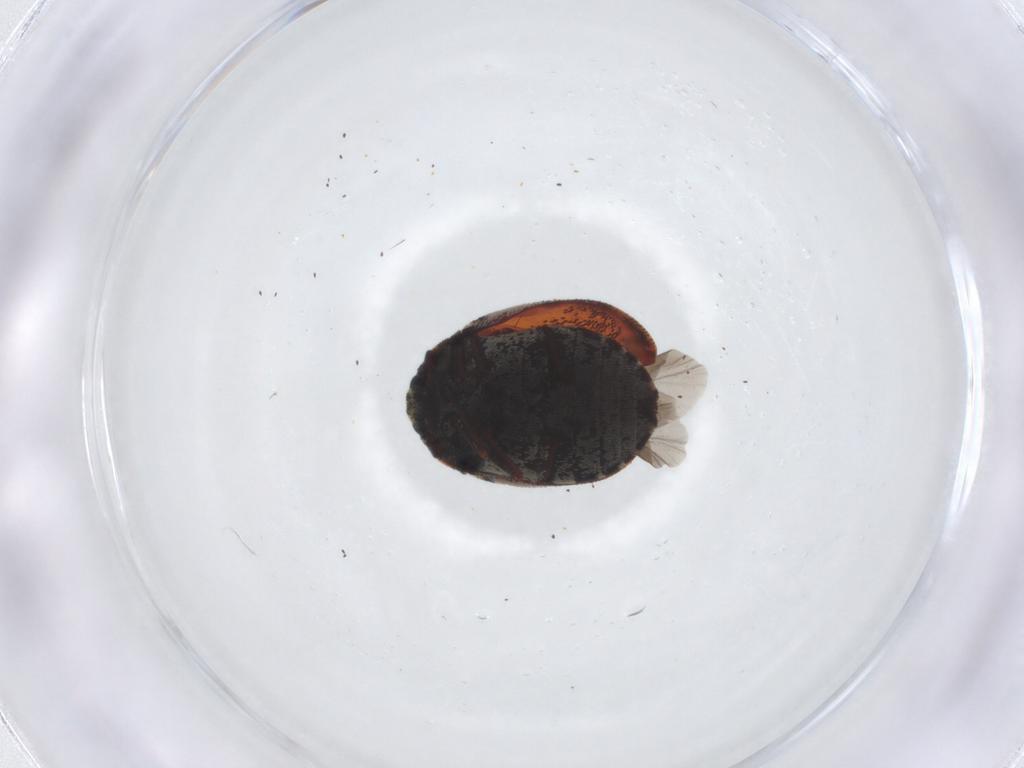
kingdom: Animalia
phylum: Arthropoda
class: Insecta
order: Coleoptera
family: Dermestidae
